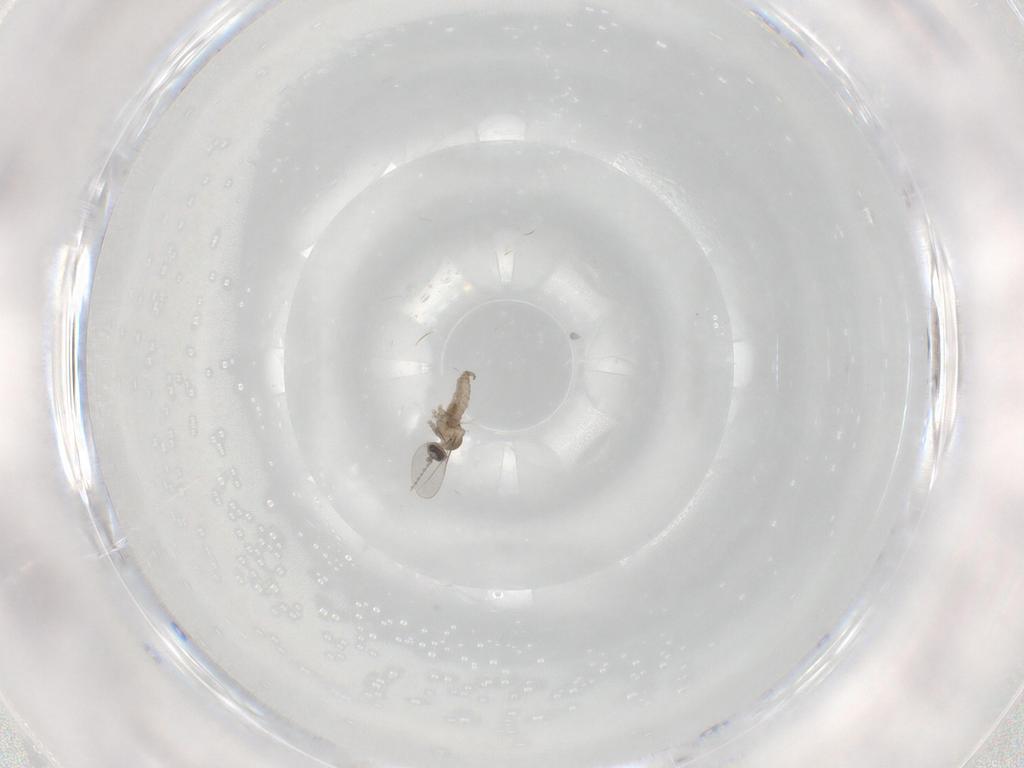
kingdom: Animalia
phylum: Arthropoda
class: Insecta
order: Diptera
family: Cecidomyiidae
